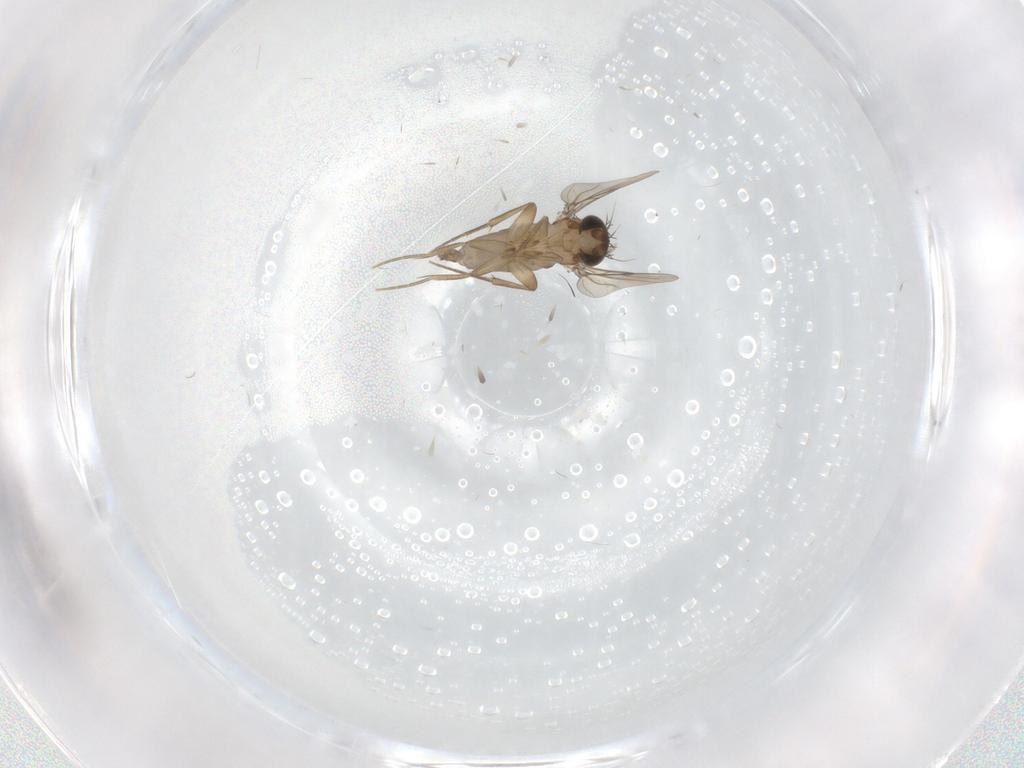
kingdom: Animalia
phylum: Arthropoda
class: Insecta
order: Diptera
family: Phoridae
